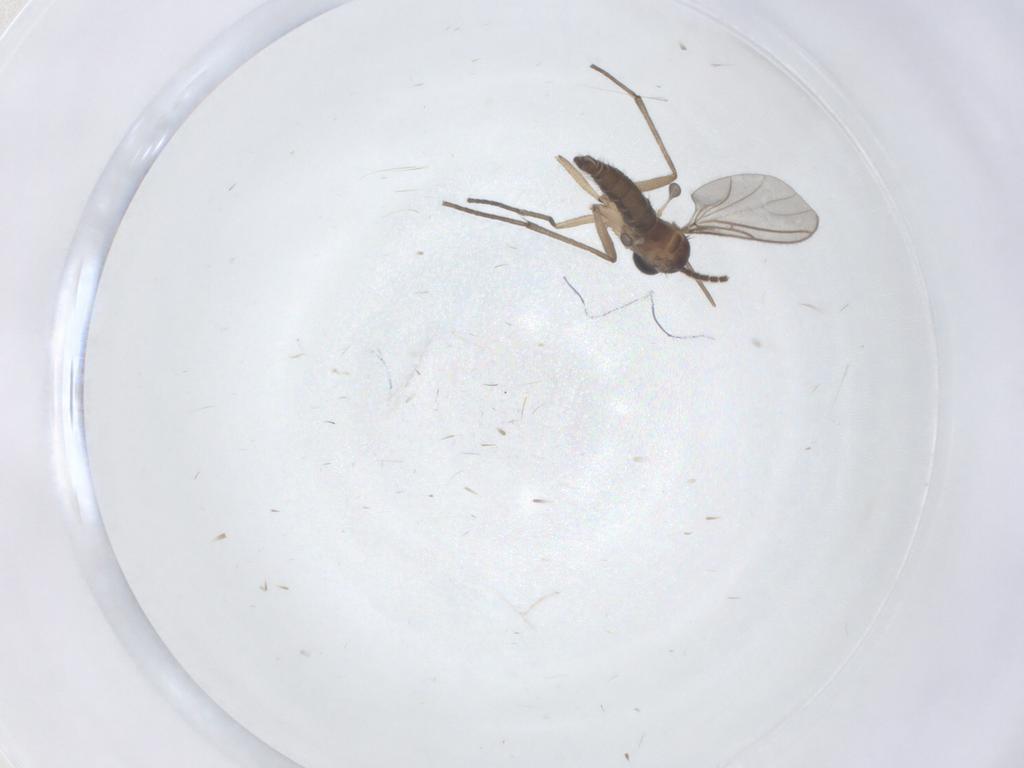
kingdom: Animalia
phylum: Arthropoda
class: Insecta
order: Diptera
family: Sciaridae
